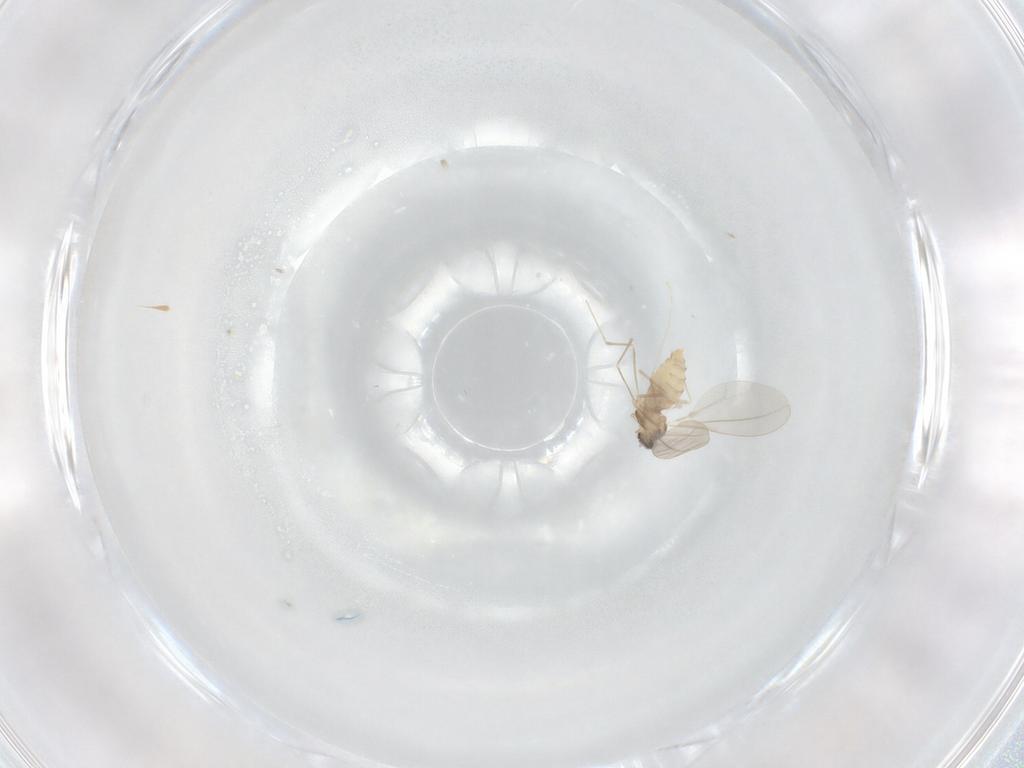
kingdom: Animalia
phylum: Arthropoda
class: Insecta
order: Diptera
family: Cecidomyiidae
